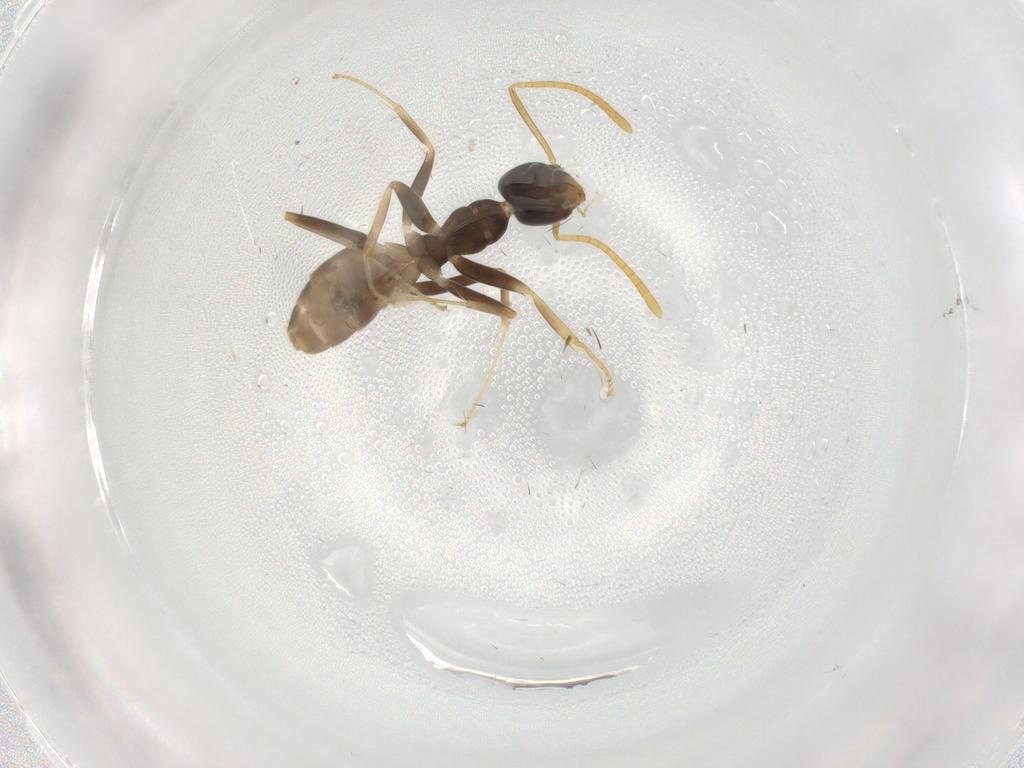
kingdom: Animalia
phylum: Arthropoda
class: Insecta
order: Hymenoptera
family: Formicidae
